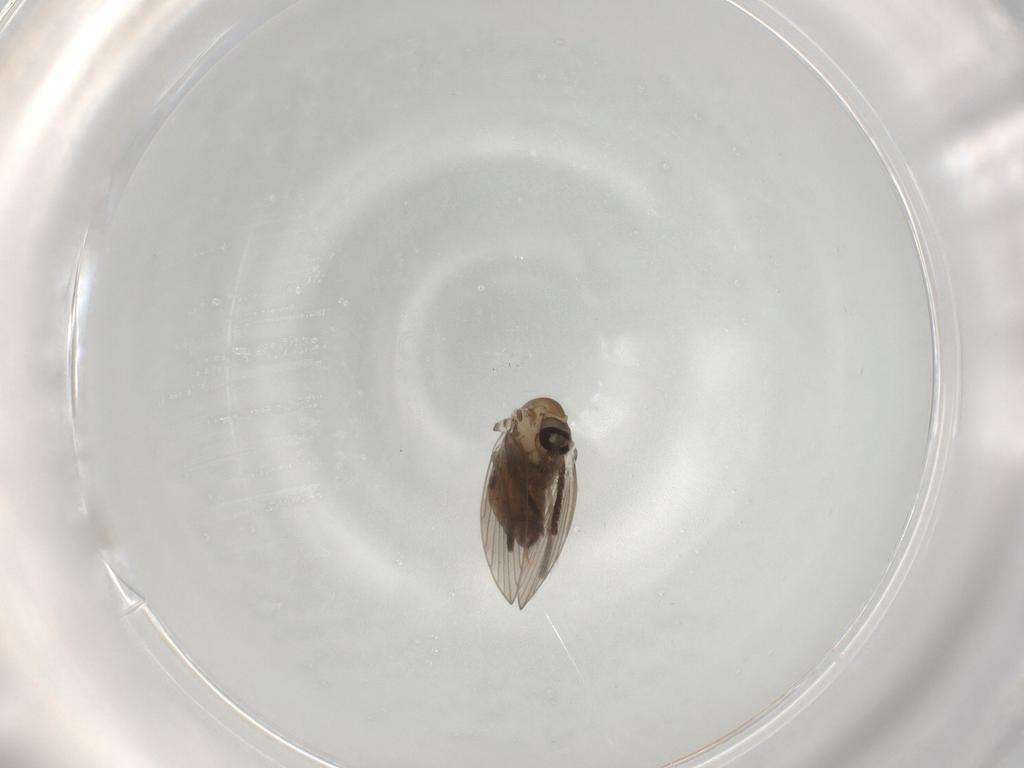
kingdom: Animalia
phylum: Arthropoda
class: Insecta
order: Diptera
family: Psychodidae
